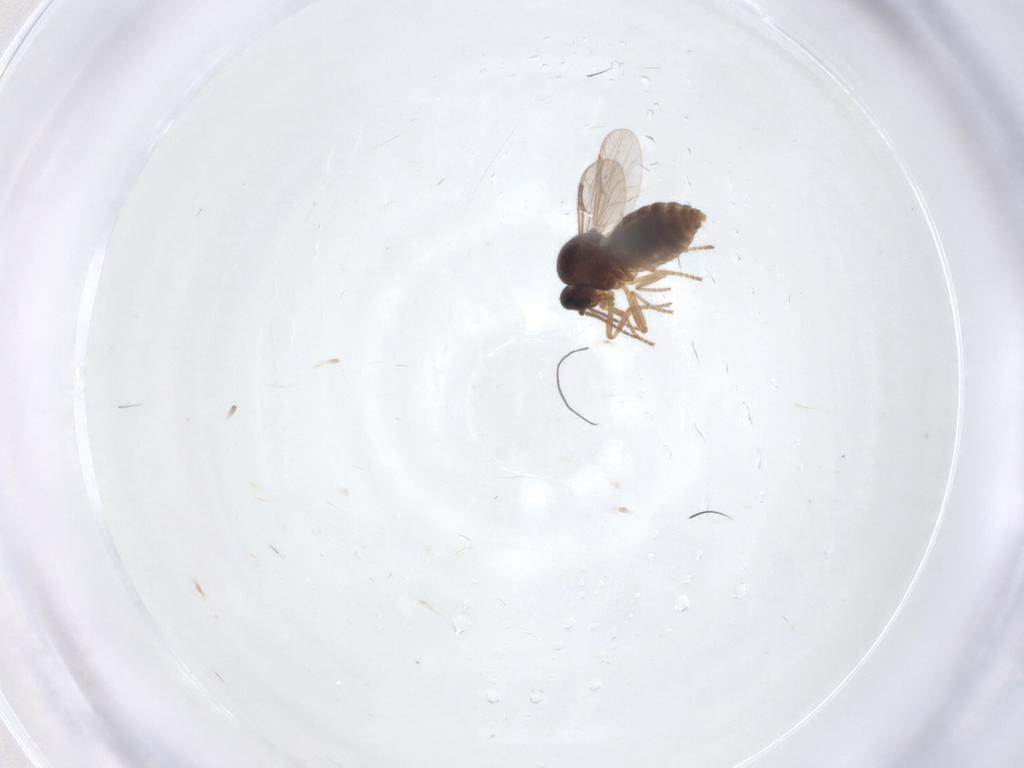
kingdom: Animalia
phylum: Arthropoda
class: Insecta
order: Diptera
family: Ceratopogonidae
